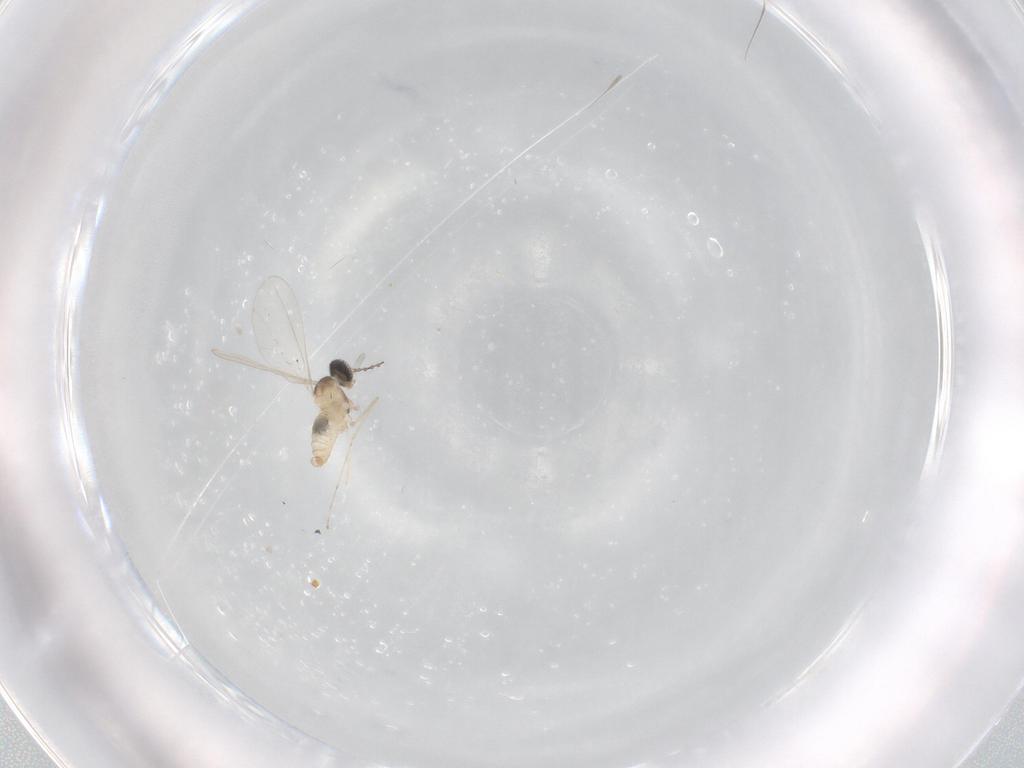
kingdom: Animalia
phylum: Arthropoda
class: Insecta
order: Diptera
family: Cecidomyiidae
